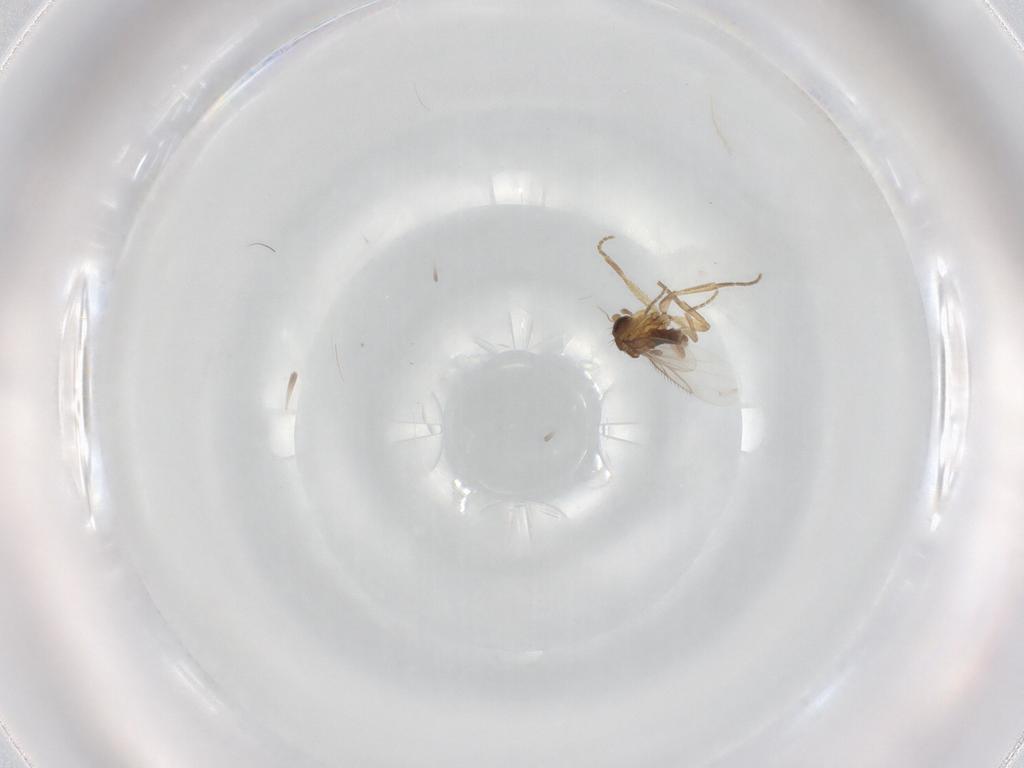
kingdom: Animalia
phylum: Arthropoda
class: Insecta
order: Diptera
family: Phoridae
